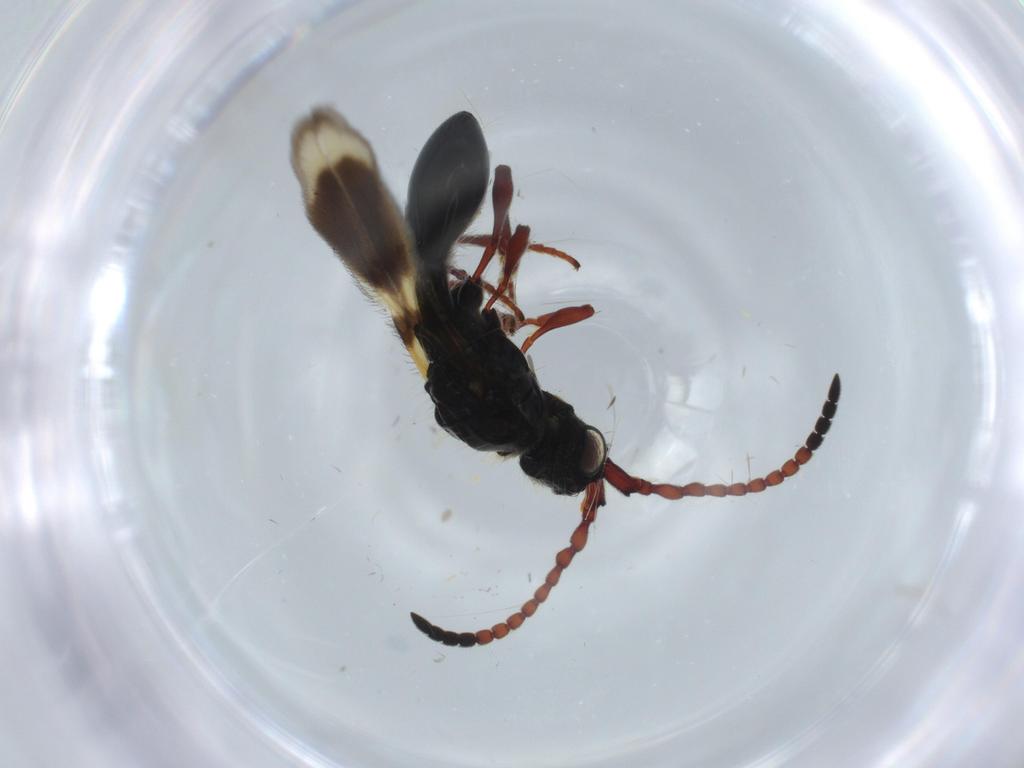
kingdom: Animalia
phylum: Arthropoda
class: Insecta
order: Hymenoptera
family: Diapriidae
